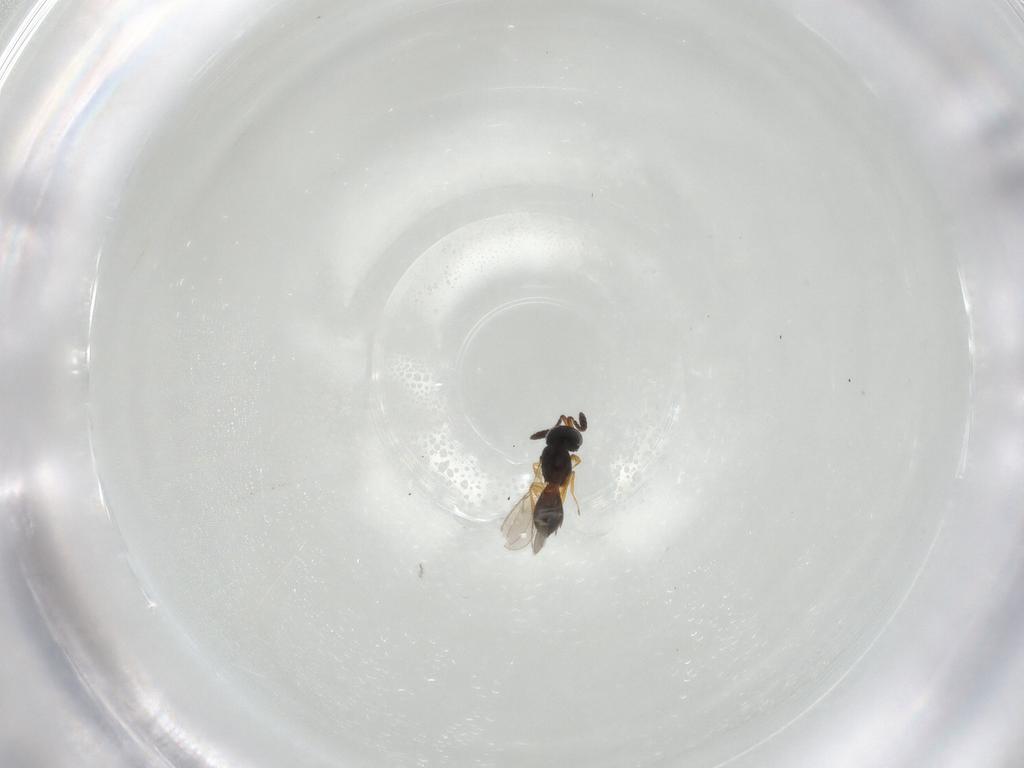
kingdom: Animalia
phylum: Arthropoda
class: Insecta
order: Hymenoptera
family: Scelionidae
